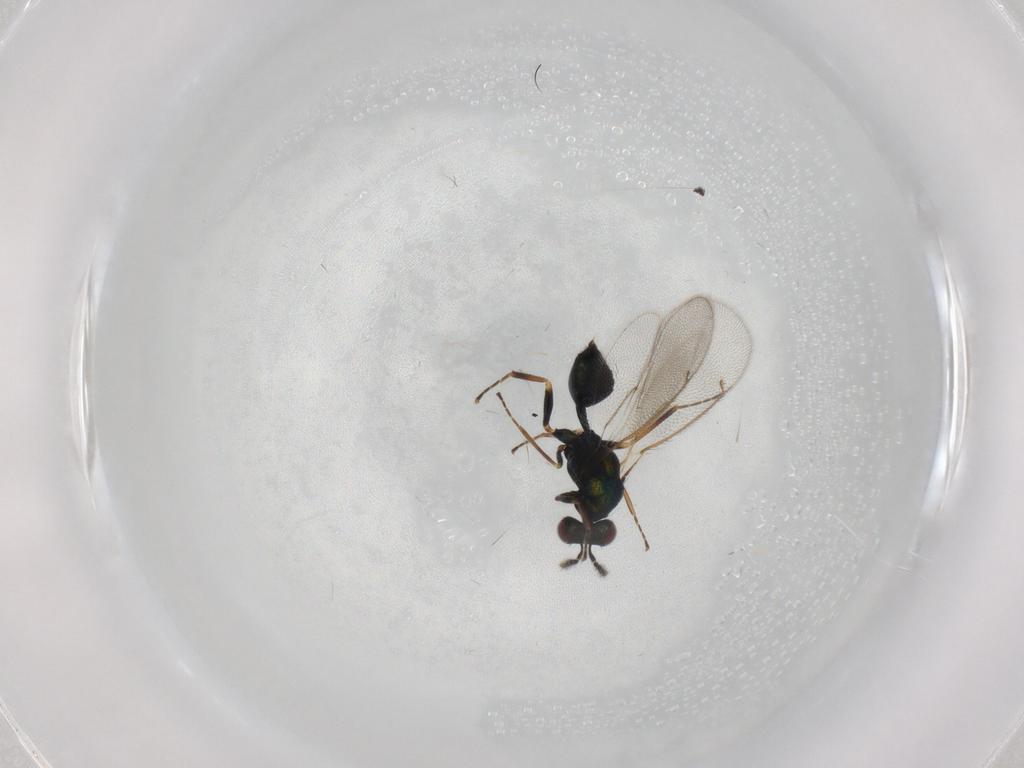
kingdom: Animalia
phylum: Arthropoda
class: Insecta
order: Hymenoptera
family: Eulophidae
